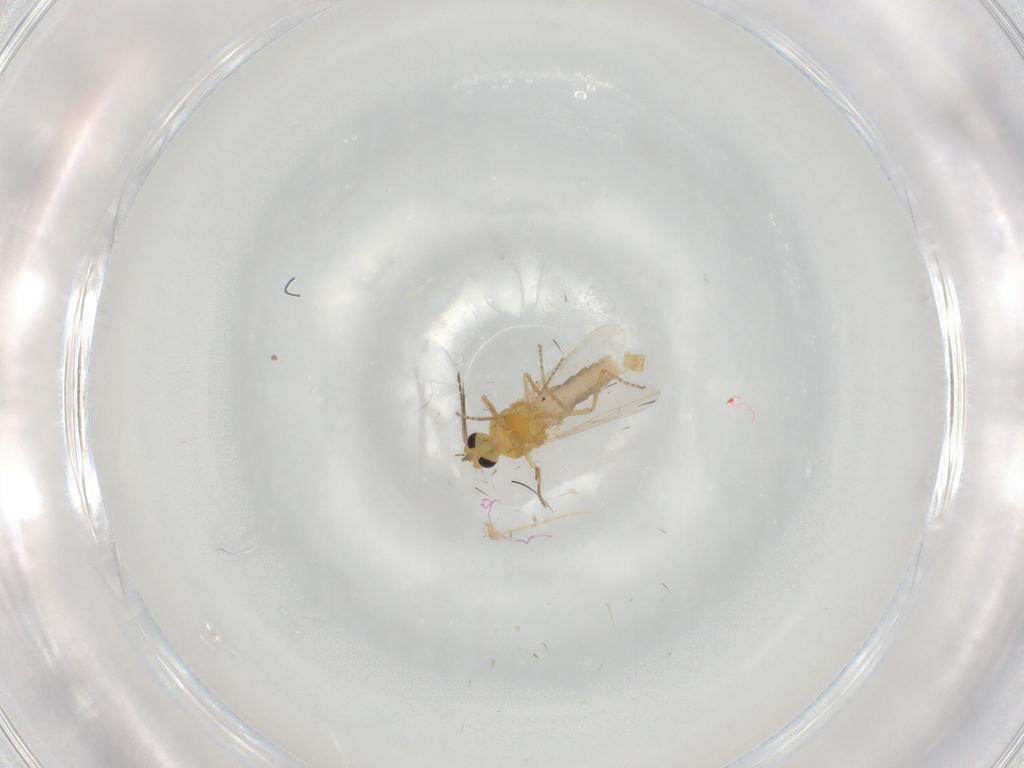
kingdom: Animalia
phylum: Arthropoda
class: Insecta
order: Diptera
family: Ceratopogonidae
